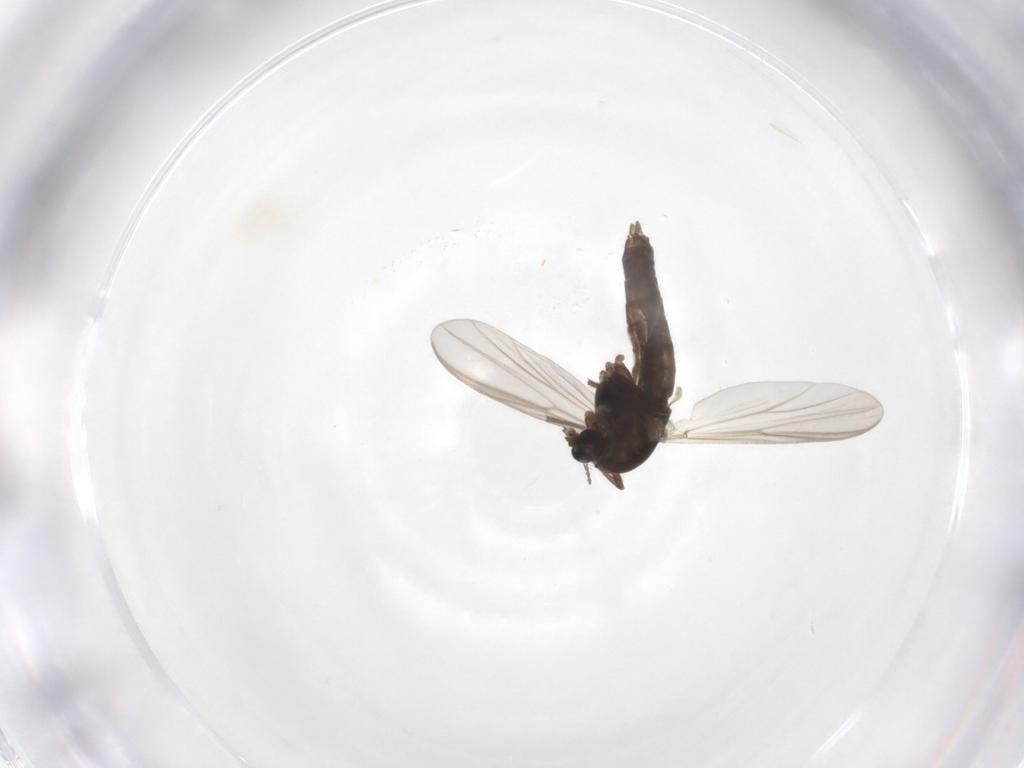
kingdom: Animalia
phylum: Arthropoda
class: Insecta
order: Diptera
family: Chironomidae
